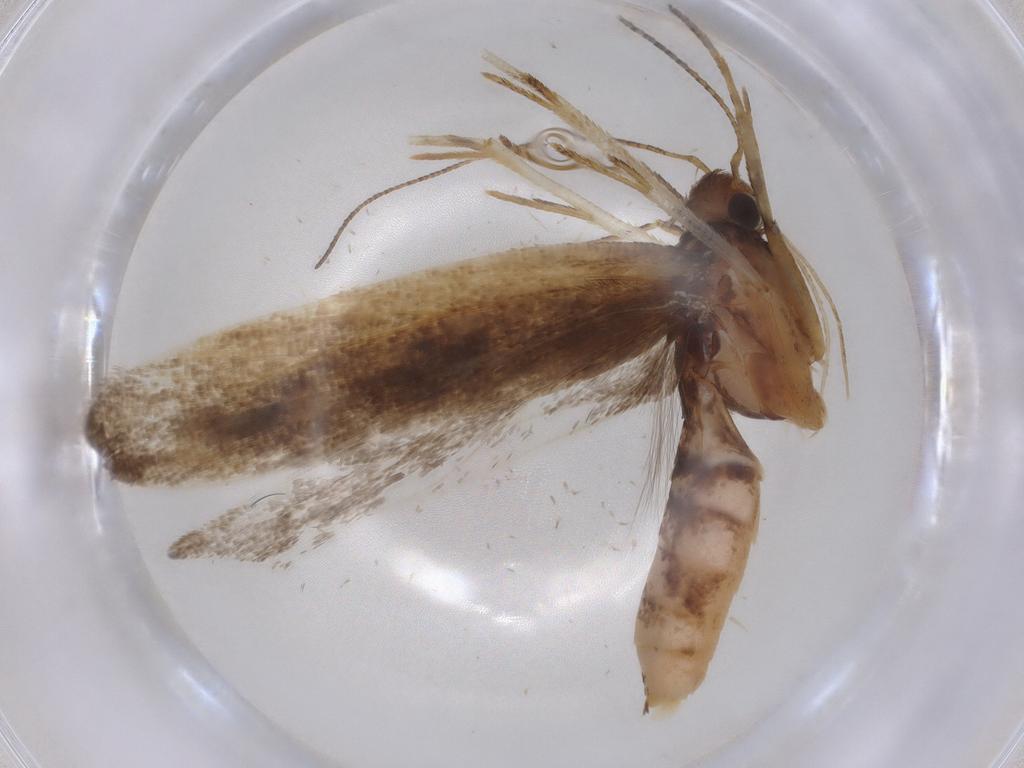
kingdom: Animalia
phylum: Arthropoda
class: Insecta
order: Lepidoptera
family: Gelechiidae
